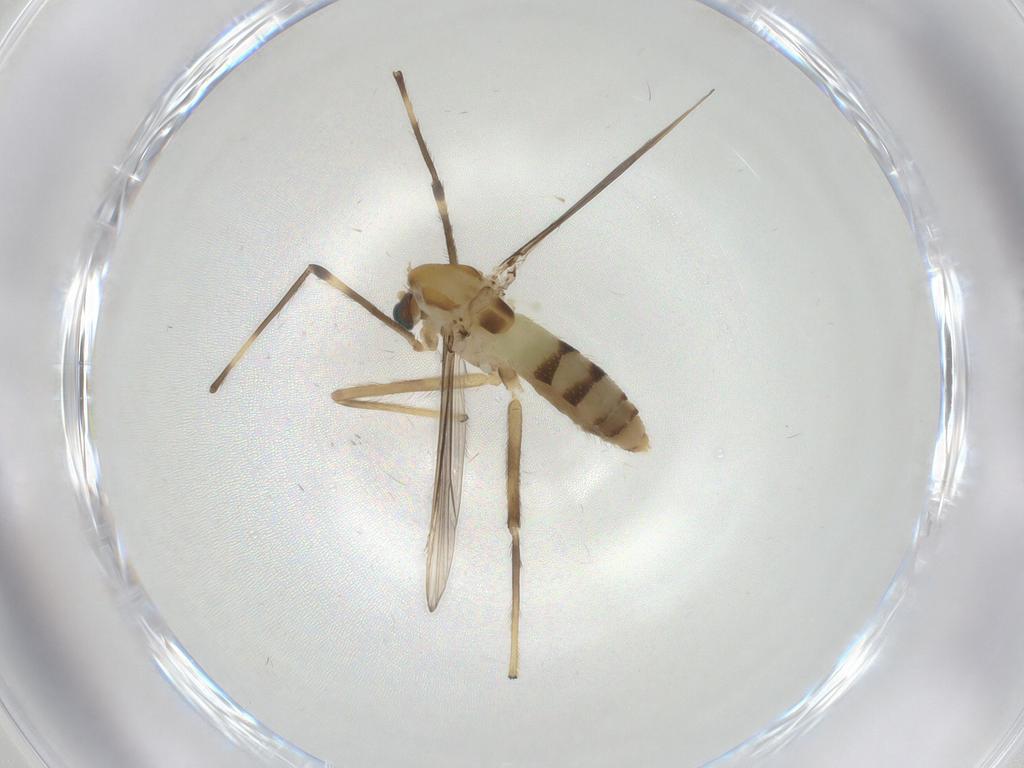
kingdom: Animalia
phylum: Arthropoda
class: Insecta
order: Diptera
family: Chironomidae
